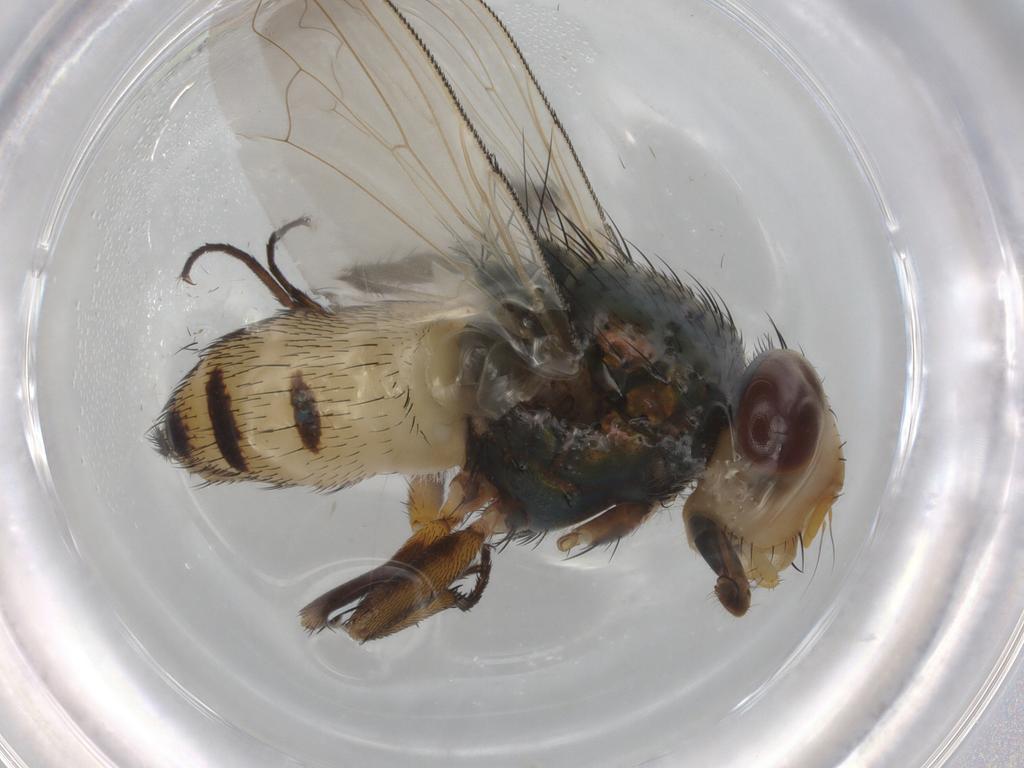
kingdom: Animalia
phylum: Arthropoda
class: Insecta
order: Diptera
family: Calliphoridae
